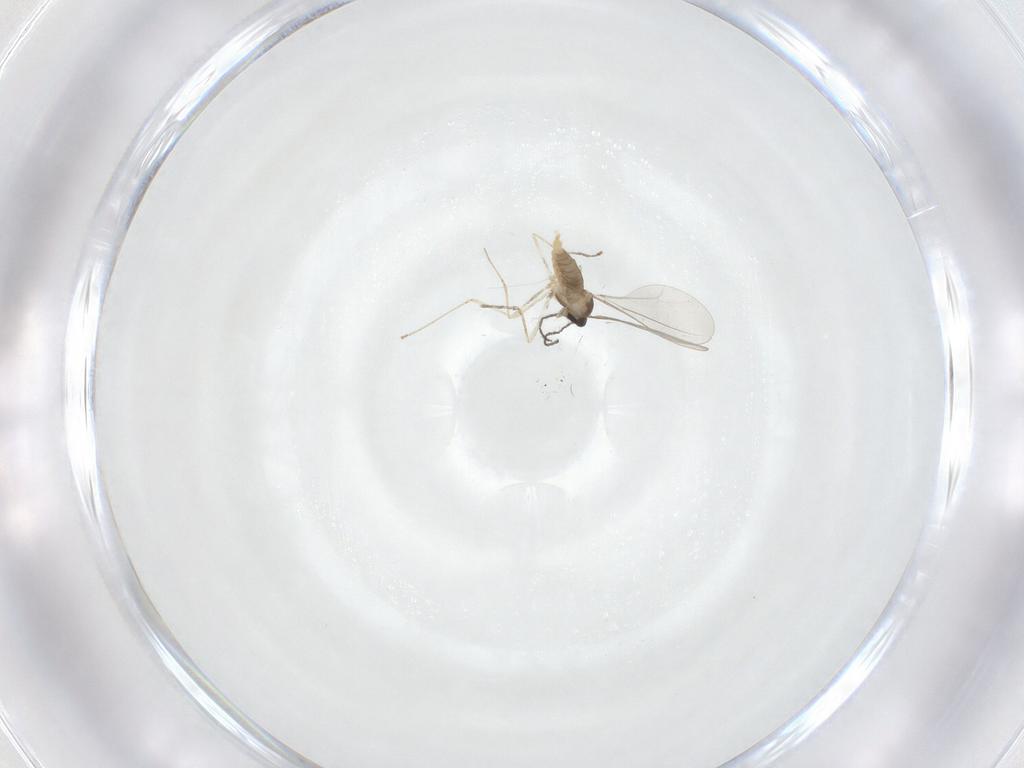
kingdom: Animalia
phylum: Arthropoda
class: Insecta
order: Diptera
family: Cecidomyiidae
